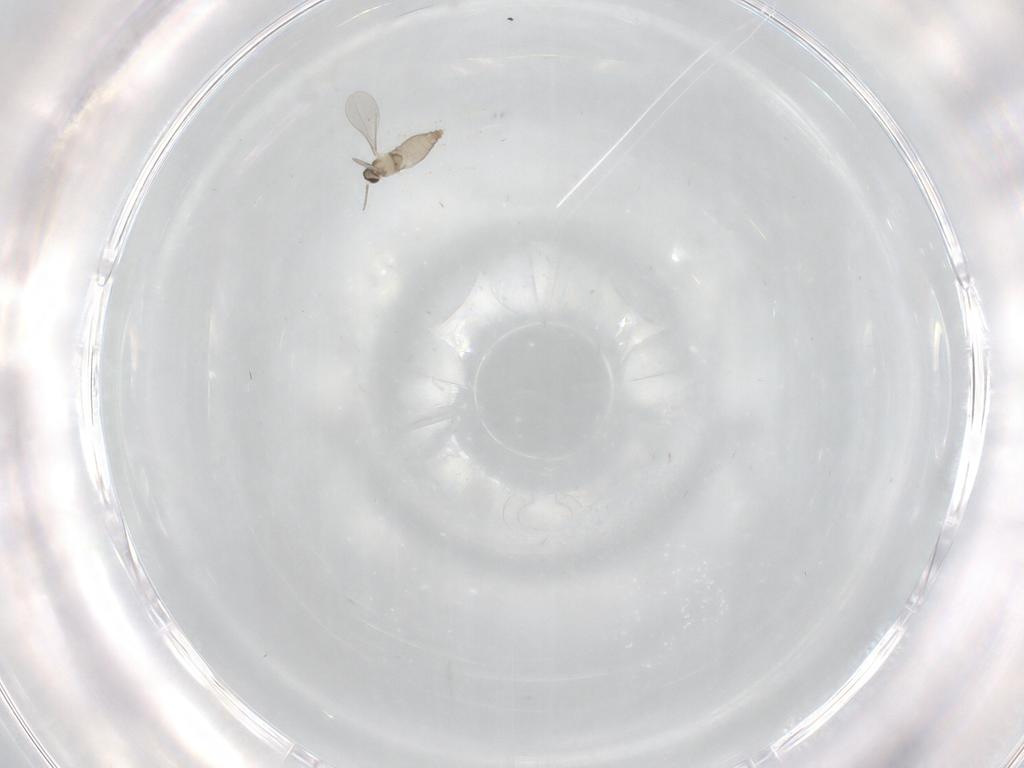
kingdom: Animalia
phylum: Arthropoda
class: Insecta
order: Diptera
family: Cecidomyiidae
